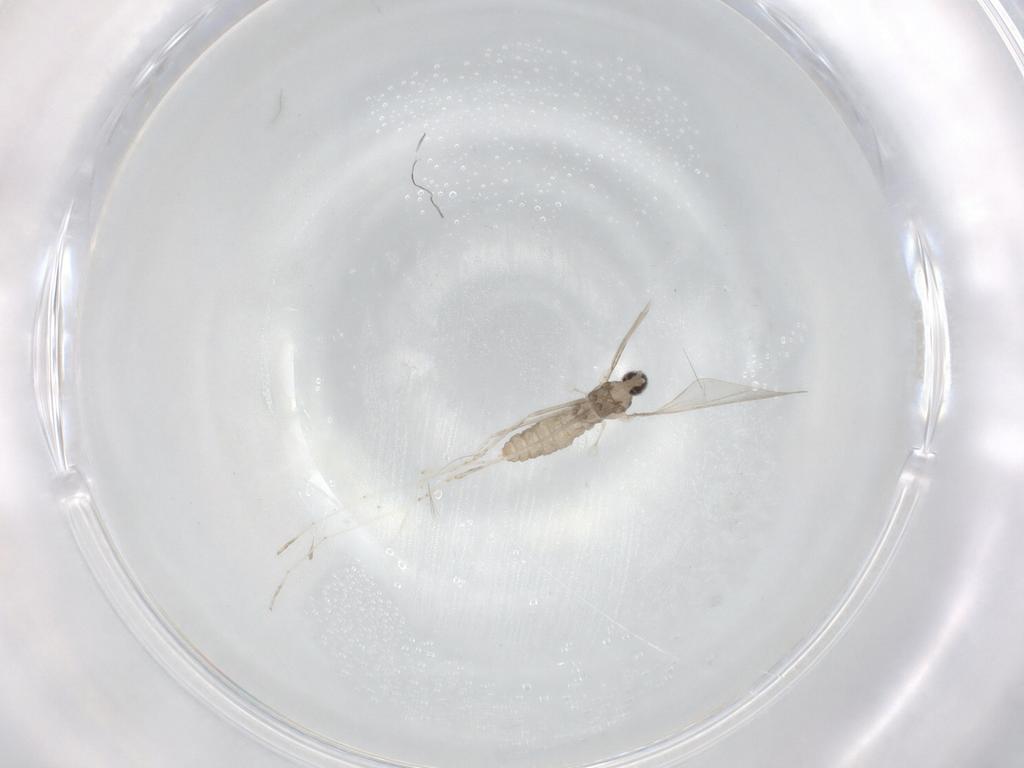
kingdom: Animalia
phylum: Arthropoda
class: Insecta
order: Diptera
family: Cecidomyiidae
